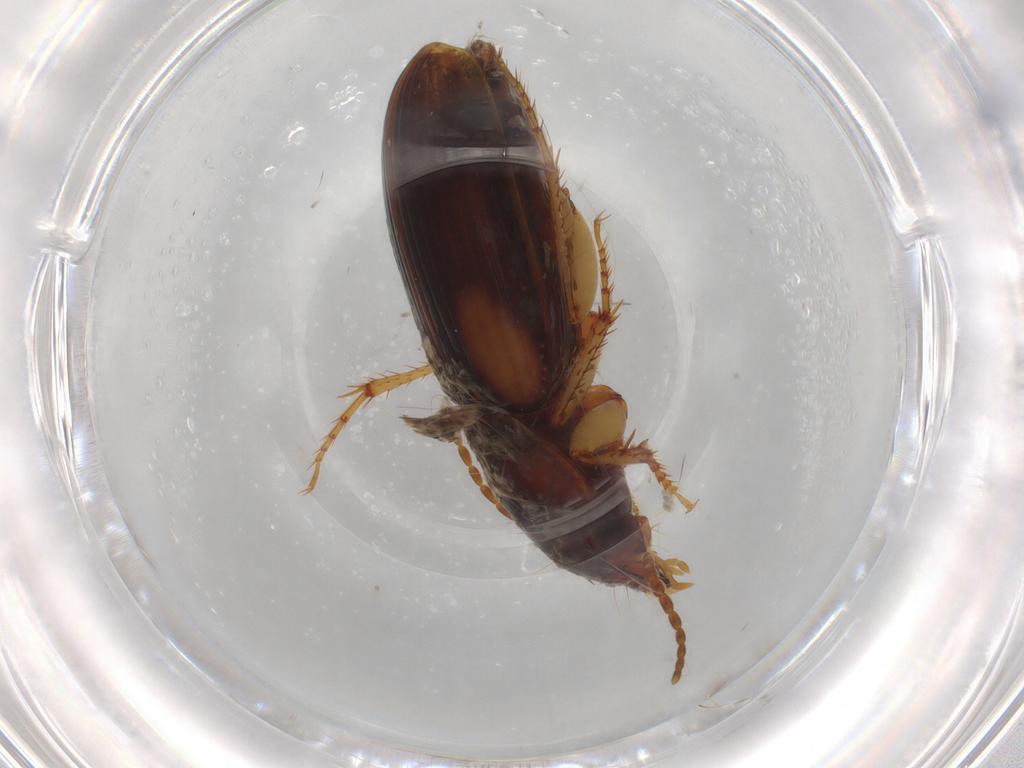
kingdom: Animalia
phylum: Arthropoda
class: Insecta
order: Coleoptera
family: Carabidae
